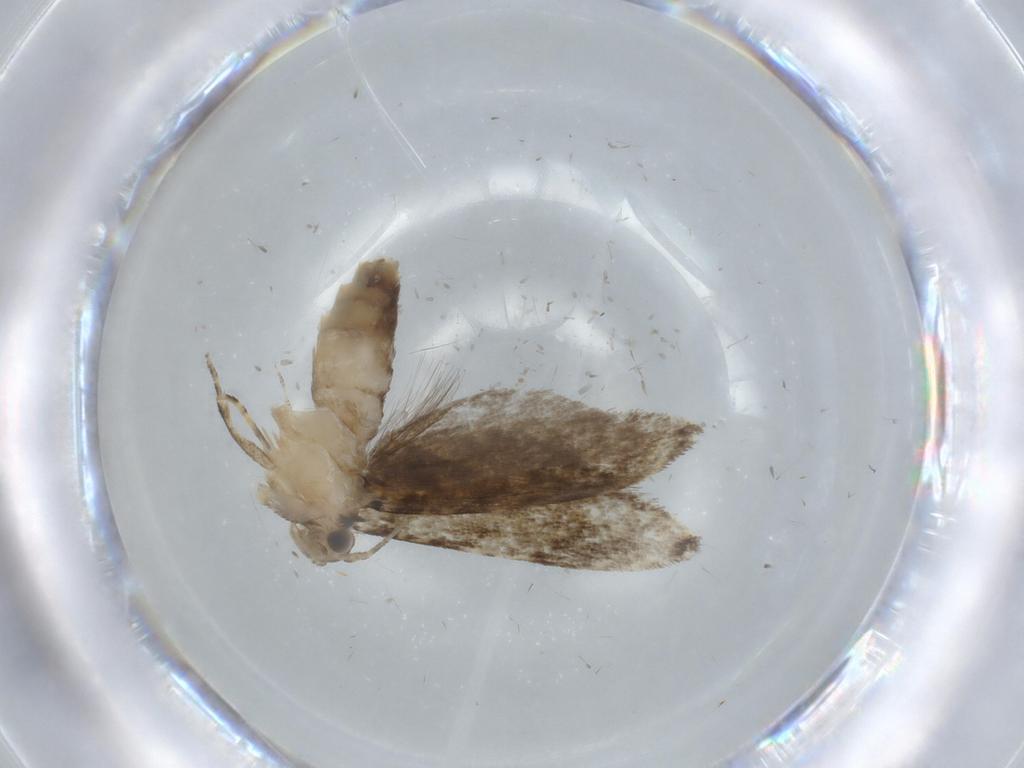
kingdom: Animalia
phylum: Arthropoda
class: Insecta
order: Lepidoptera
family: Tineidae
